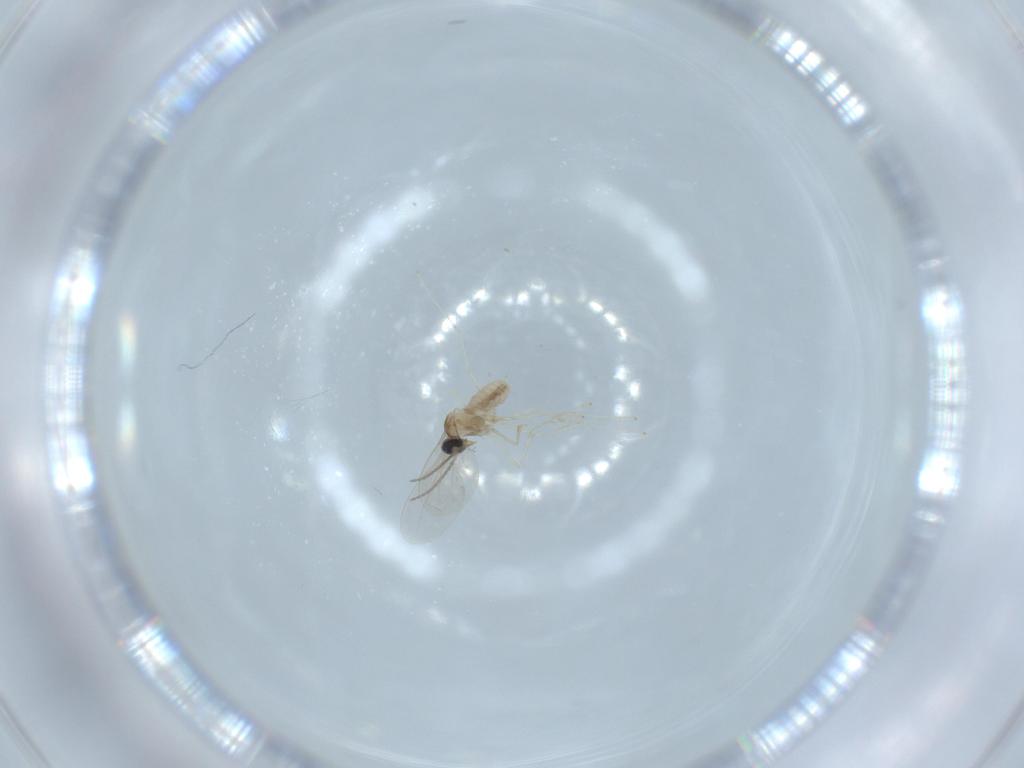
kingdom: Animalia
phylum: Arthropoda
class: Insecta
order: Diptera
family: Cecidomyiidae
